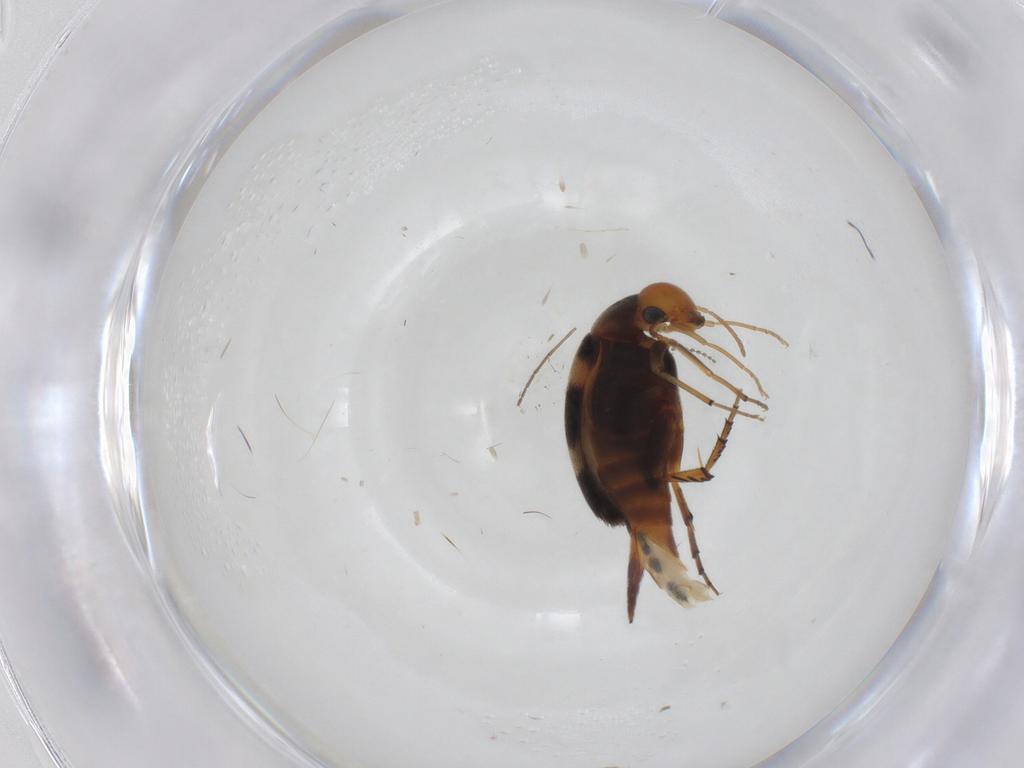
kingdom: Animalia
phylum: Arthropoda
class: Insecta
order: Coleoptera
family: Mordellidae
